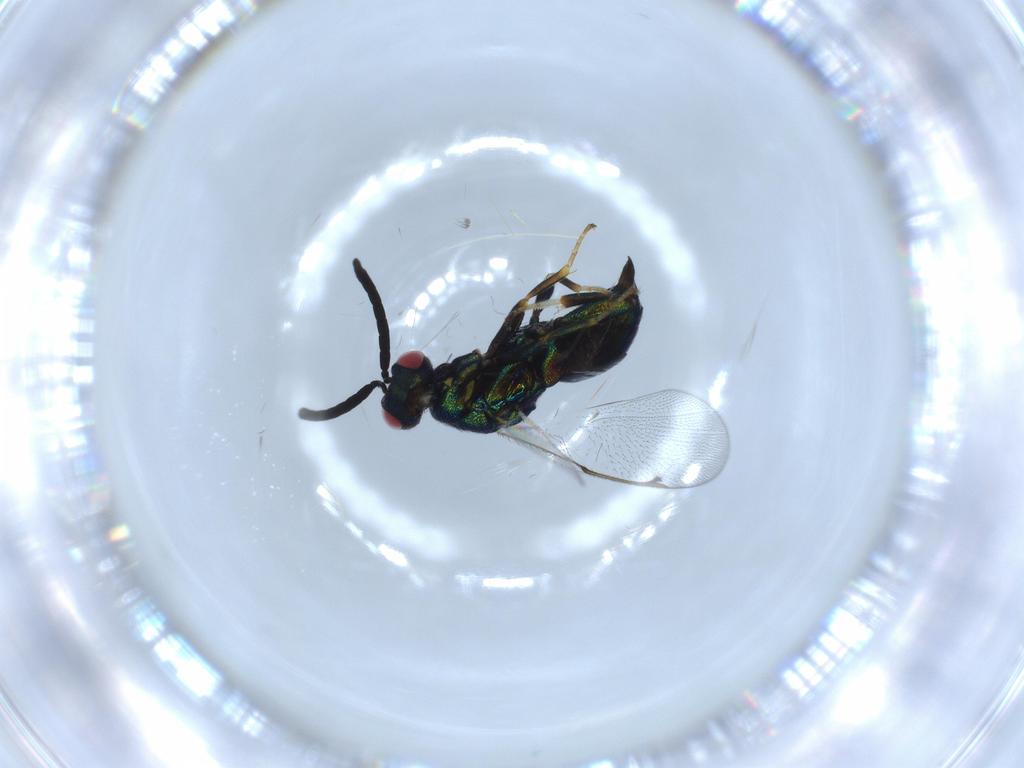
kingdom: Animalia
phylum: Arthropoda
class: Insecta
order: Hymenoptera
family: Torymidae
